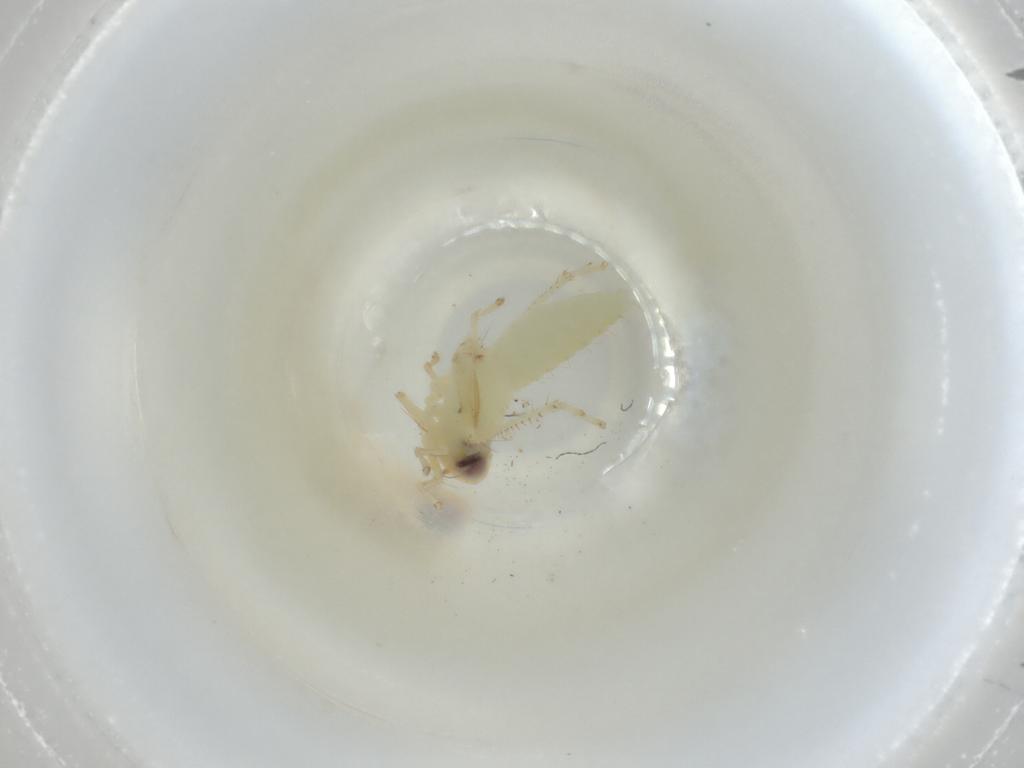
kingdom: Animalia
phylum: Arthropoda
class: Insecta
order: Hemiptera
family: Cicadellidae
